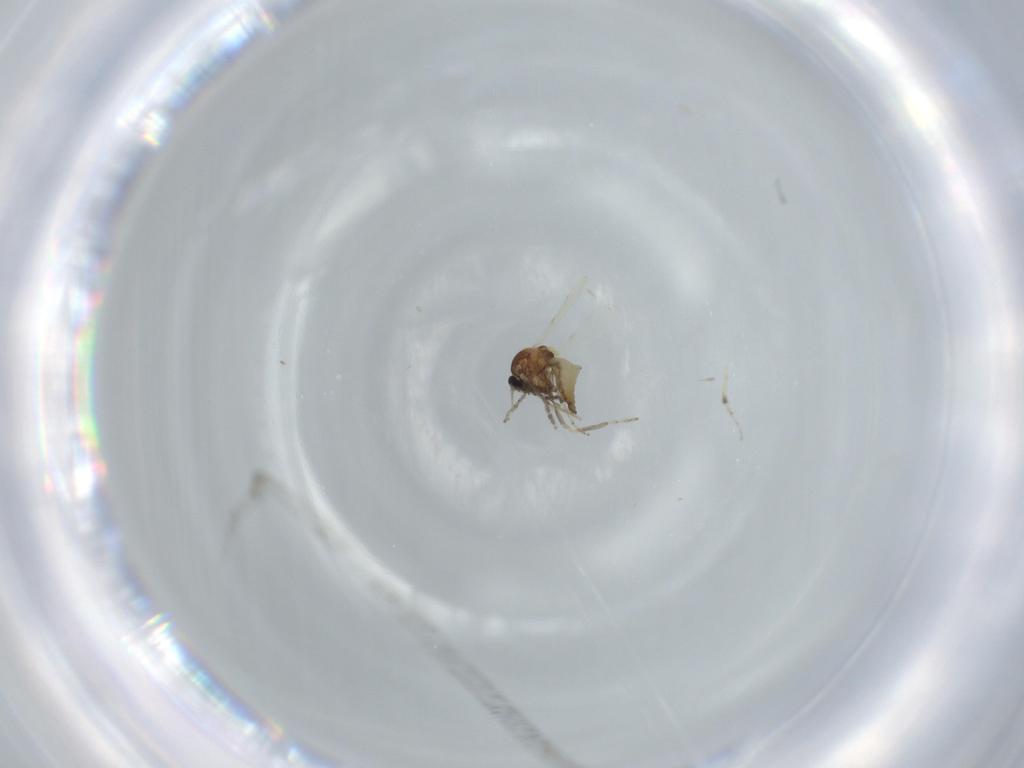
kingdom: Animalia
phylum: Arthropoda
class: Insecta
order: Diptera
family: Ceratopogonidae
